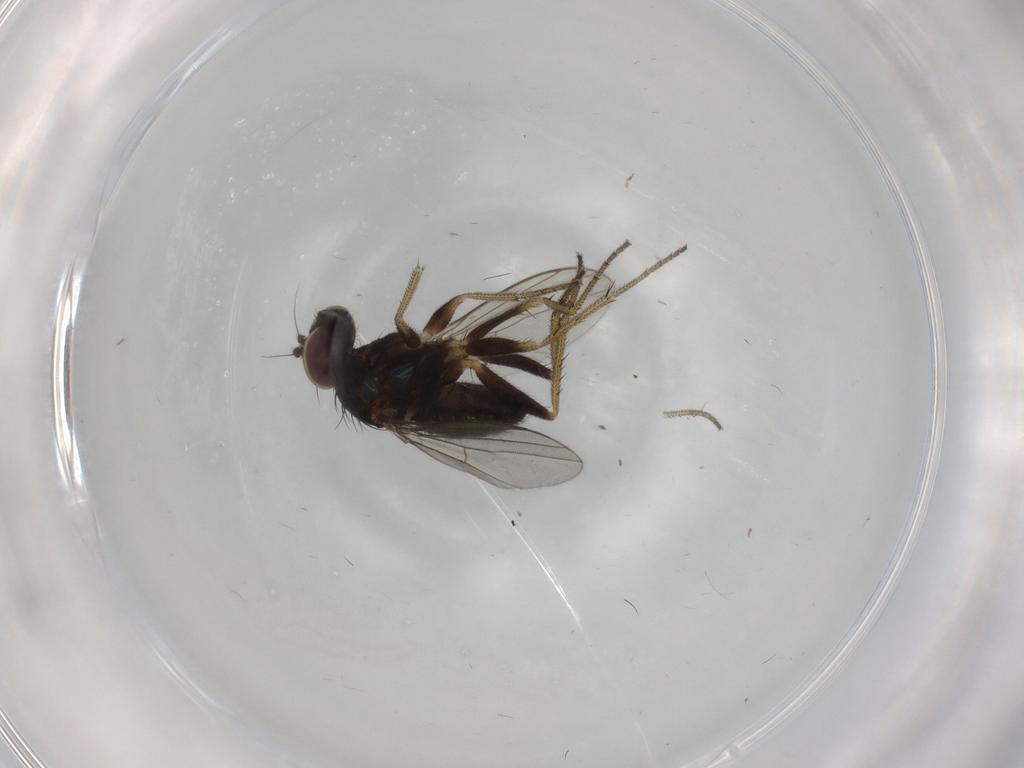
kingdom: Animalia
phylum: Arthropoda
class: Insecta
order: Diptera
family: Dolichopodidae
